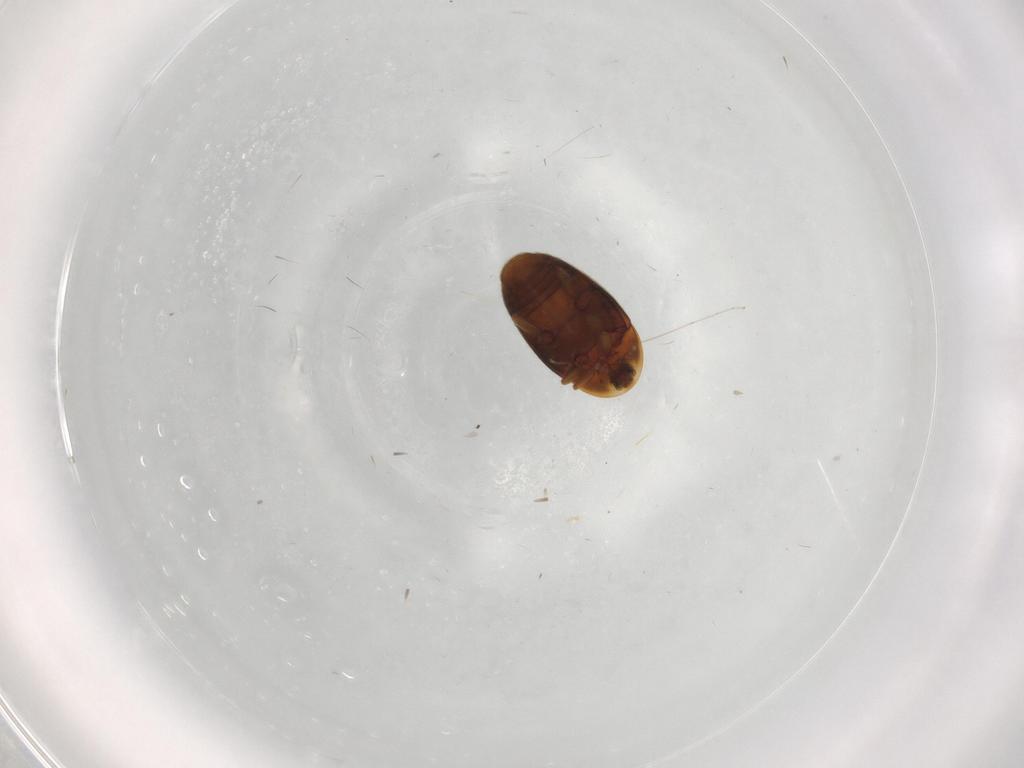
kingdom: Animalia
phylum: Arthropoda
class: Insecta
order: Coleoptera
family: Corylophidae
